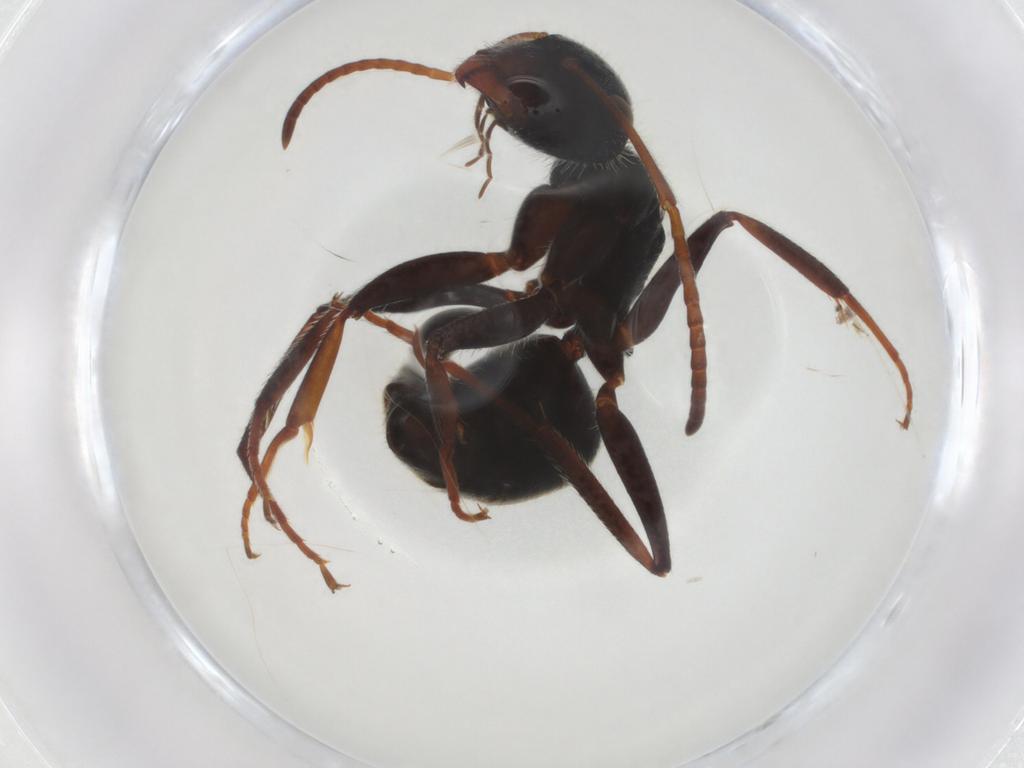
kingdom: Animalia
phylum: Arthropoda
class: Insecta
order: Hymenoptera
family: Formicidae
